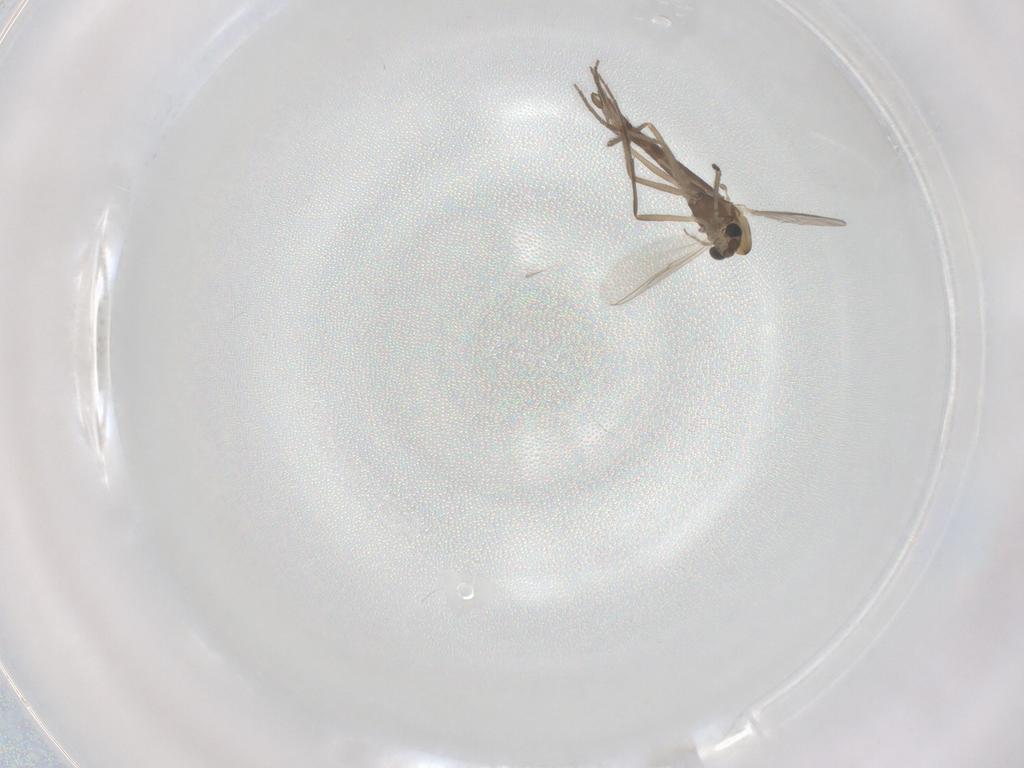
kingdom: Animalia
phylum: Arthropoda
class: Insecta
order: Diptera
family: Chironomidae
